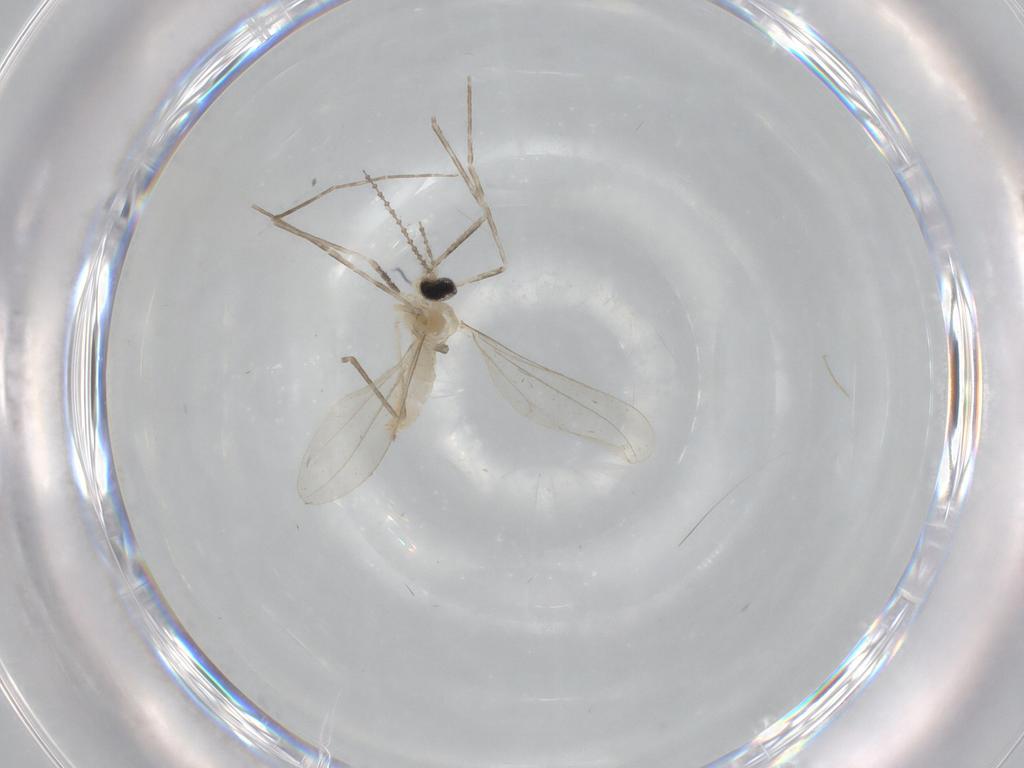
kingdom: Animalia
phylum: Arthropoda
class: Insecta
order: Diptera
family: Cecidomyiidae
